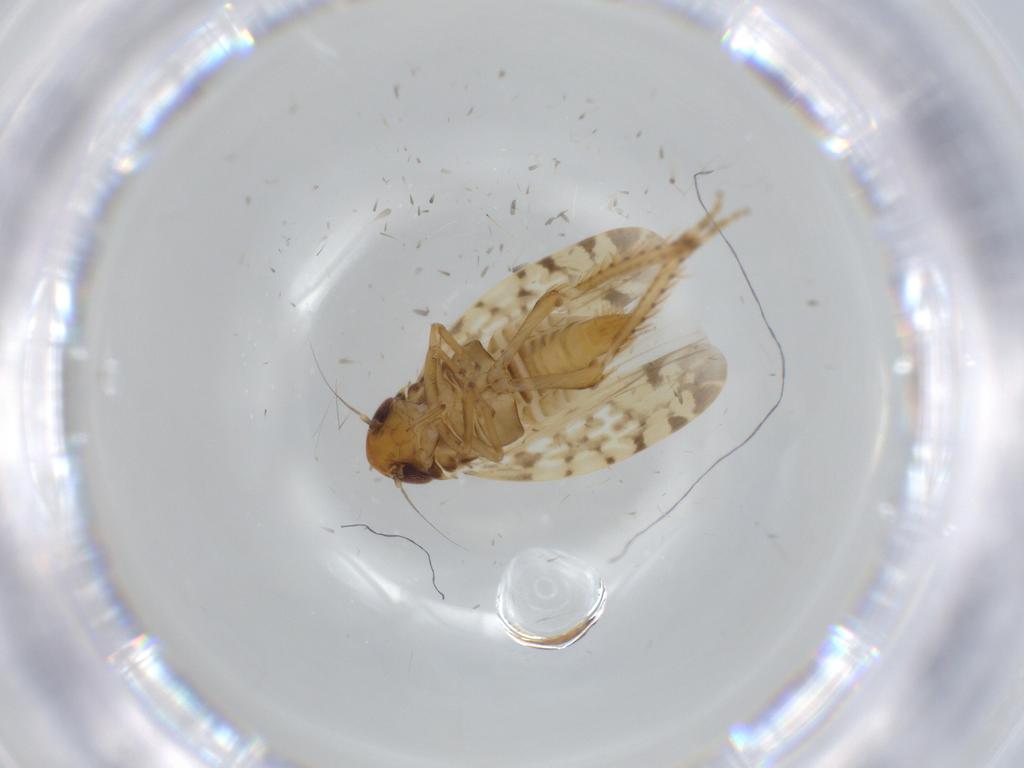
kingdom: Animalia
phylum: Arthropoda
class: Insecta
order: Hemiptera
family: Cicadellidae
